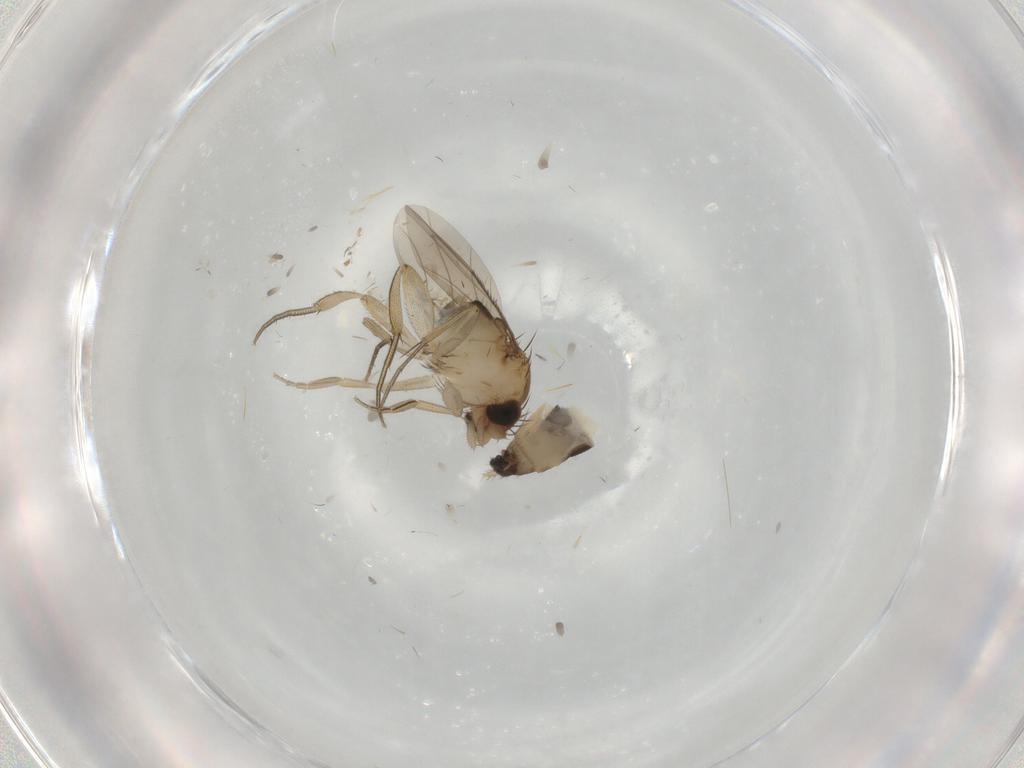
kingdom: Animalia
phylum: Arthropoda
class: Insecta
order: Diptera
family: Phoridae
